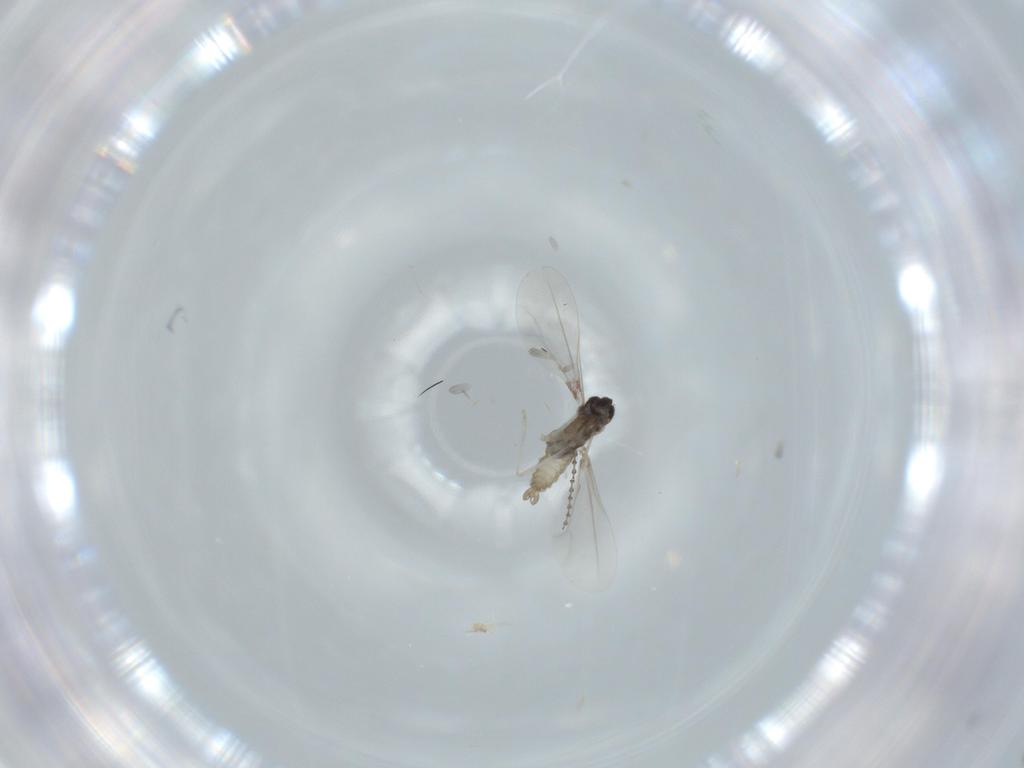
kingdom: Animalia
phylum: Arthropoda
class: Insecta
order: Diptera
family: Cecidomyiidae
